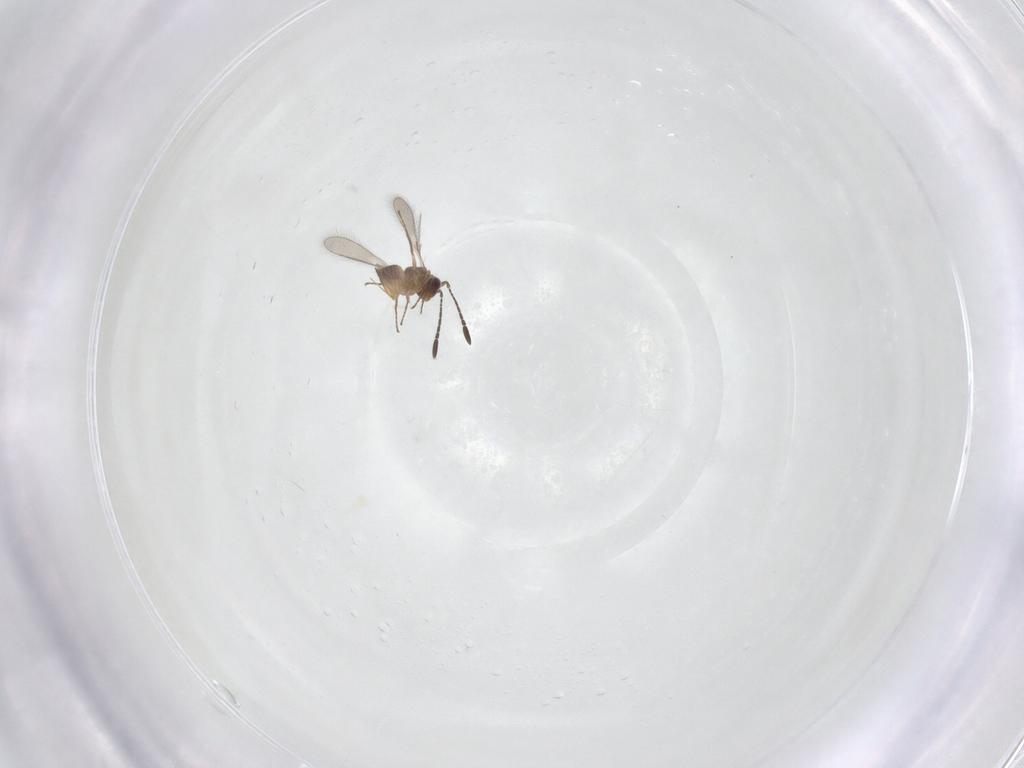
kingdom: Animalia
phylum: Arthropoda
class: Insecta
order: Hymenoptera
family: Mymaridae
